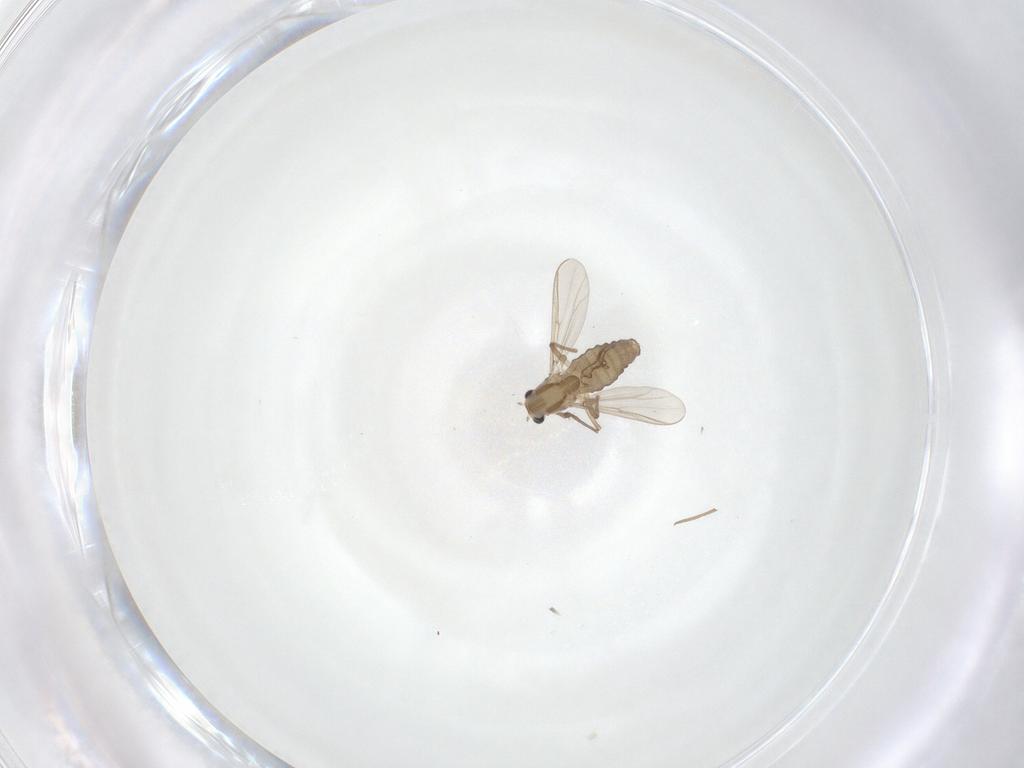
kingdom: Animalia
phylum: Arthropoda
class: Insecta
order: Diptera
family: Chironomidae
